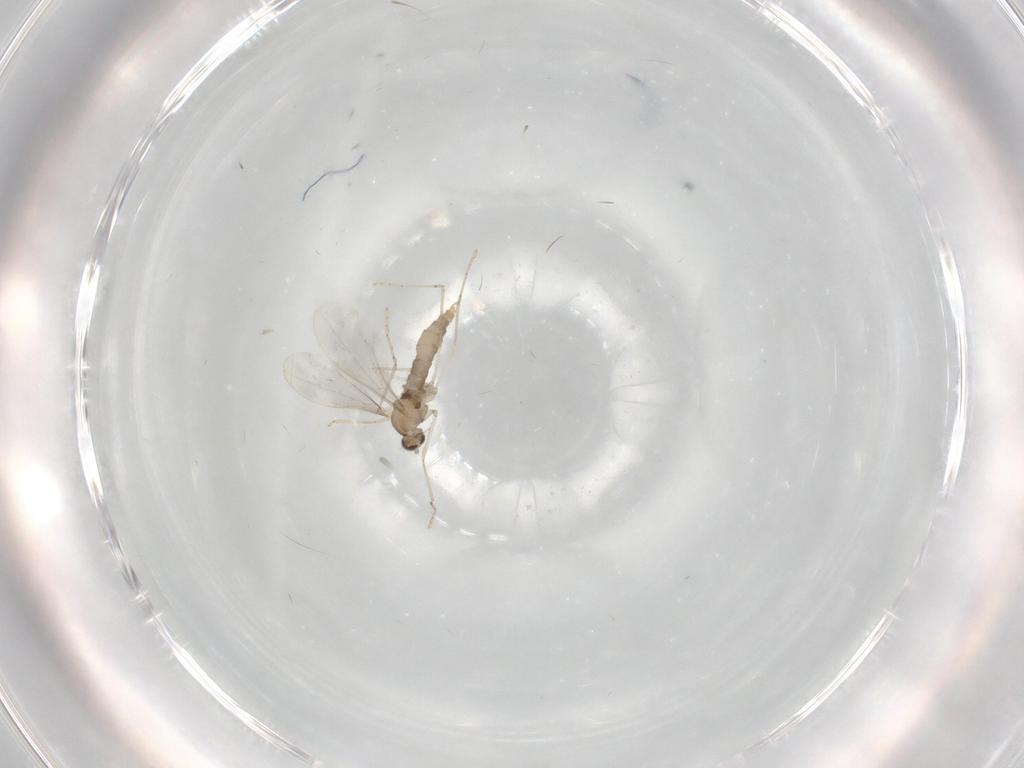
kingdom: Animalia
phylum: Arthropoda
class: Insecta
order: Diptera
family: Cecidomyiidae
